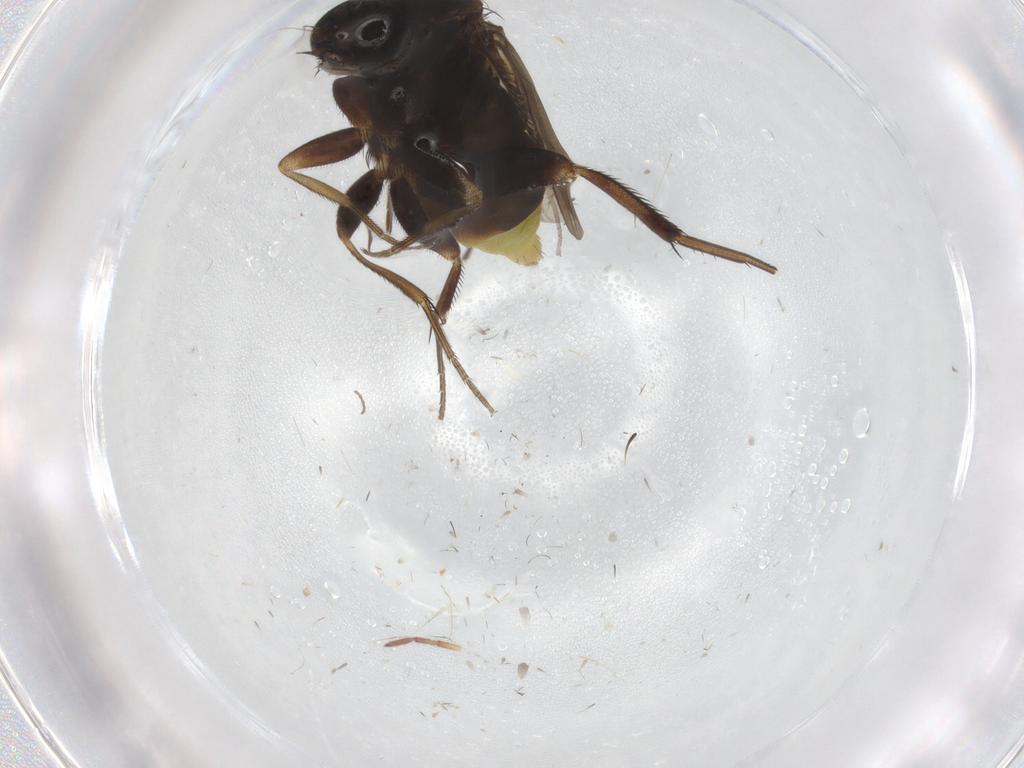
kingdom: Animalia
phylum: Arthropoda
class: Insecta
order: Diptera
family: Phoridae
